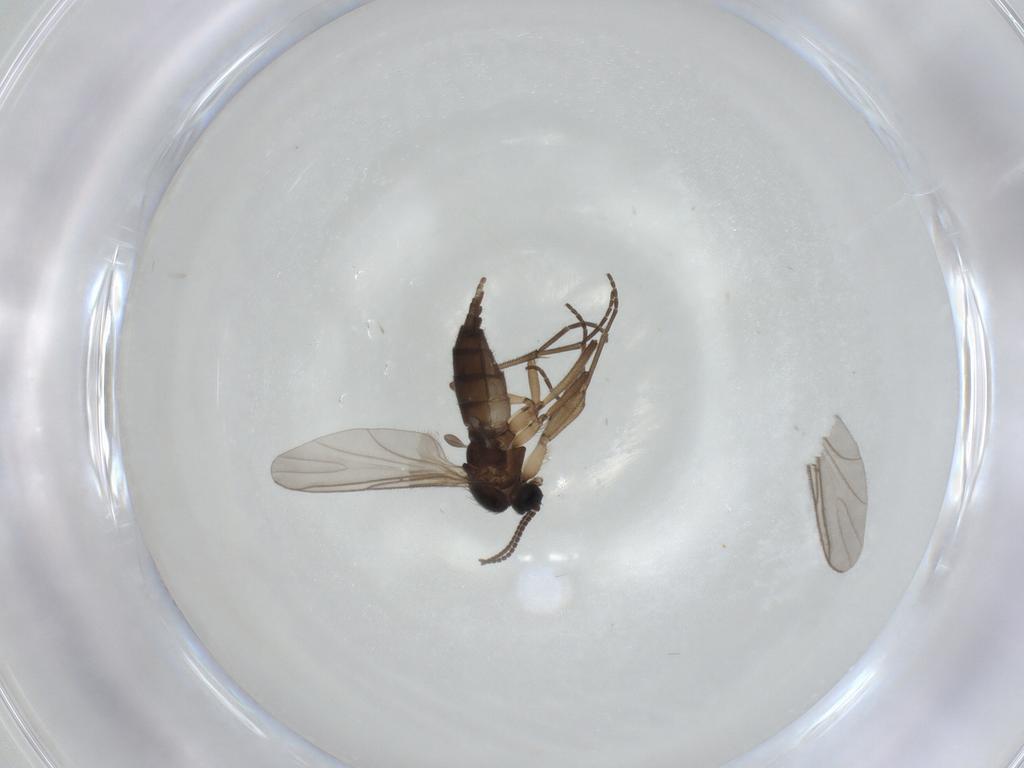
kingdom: Animalia
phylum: Arthropoda
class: Insecta
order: Diptera
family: Sciaridae
